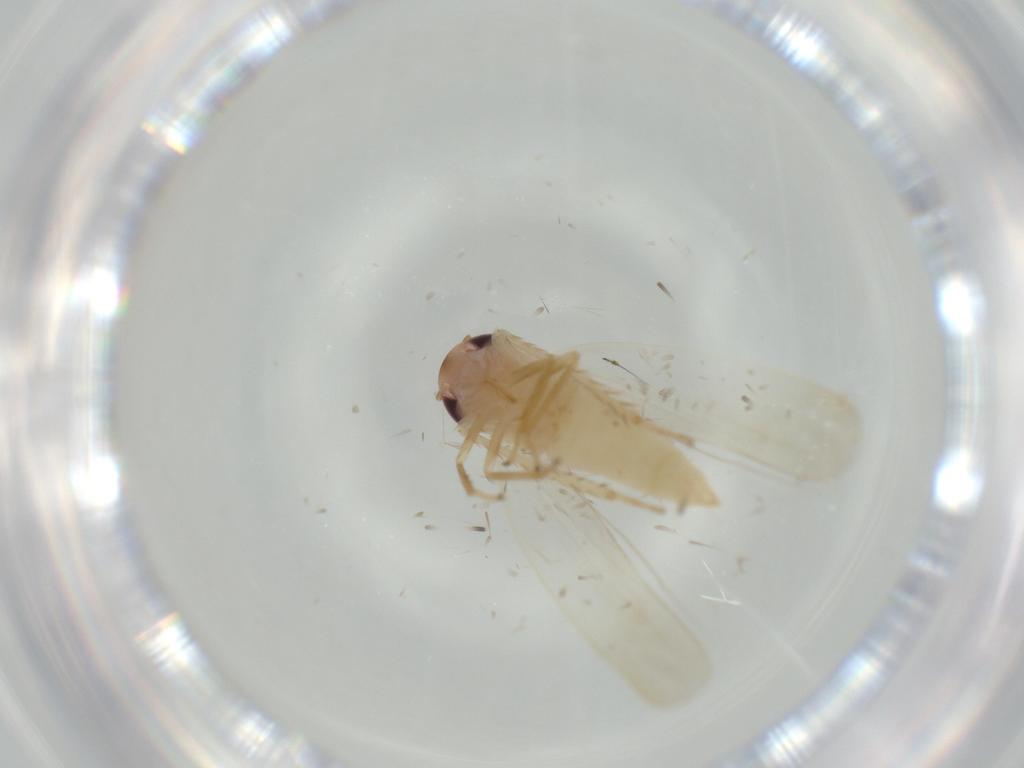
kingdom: Animalia
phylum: Arthropoda
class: Insecta
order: Hemiptera
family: Cicadellidae
